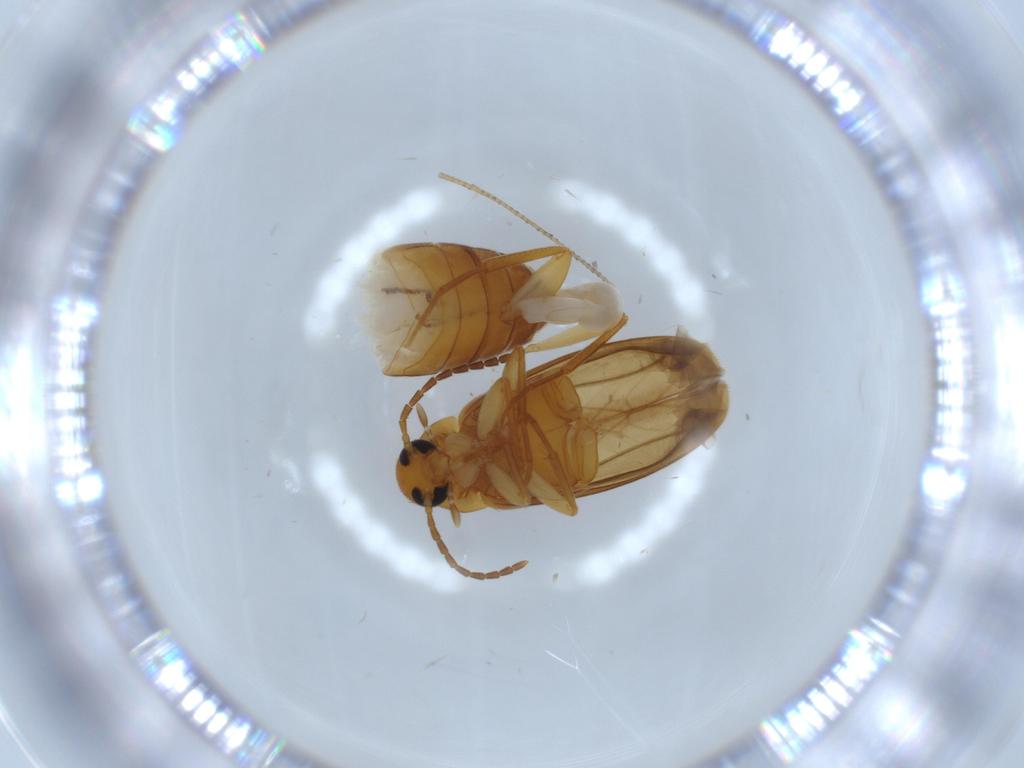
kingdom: Animalia
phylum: Arthropoda
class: Insecta
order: Coleoptera
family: Scraptiidae
